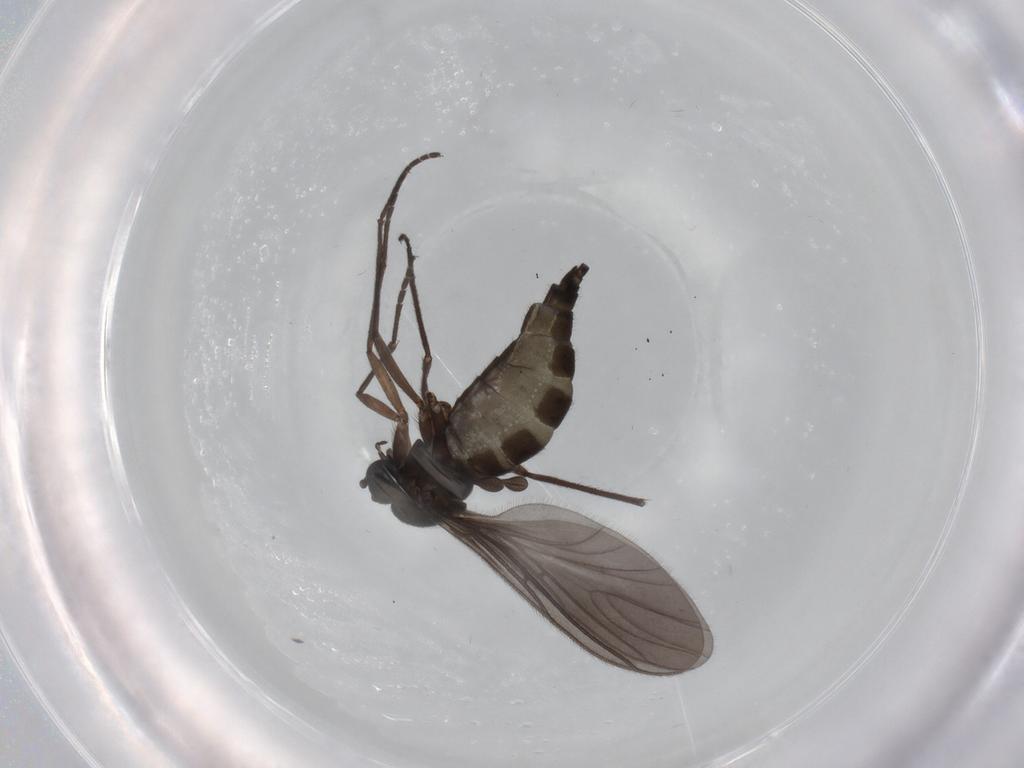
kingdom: Animalia
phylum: Arthropoda
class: Insecta
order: Diptera
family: Sciaridae
